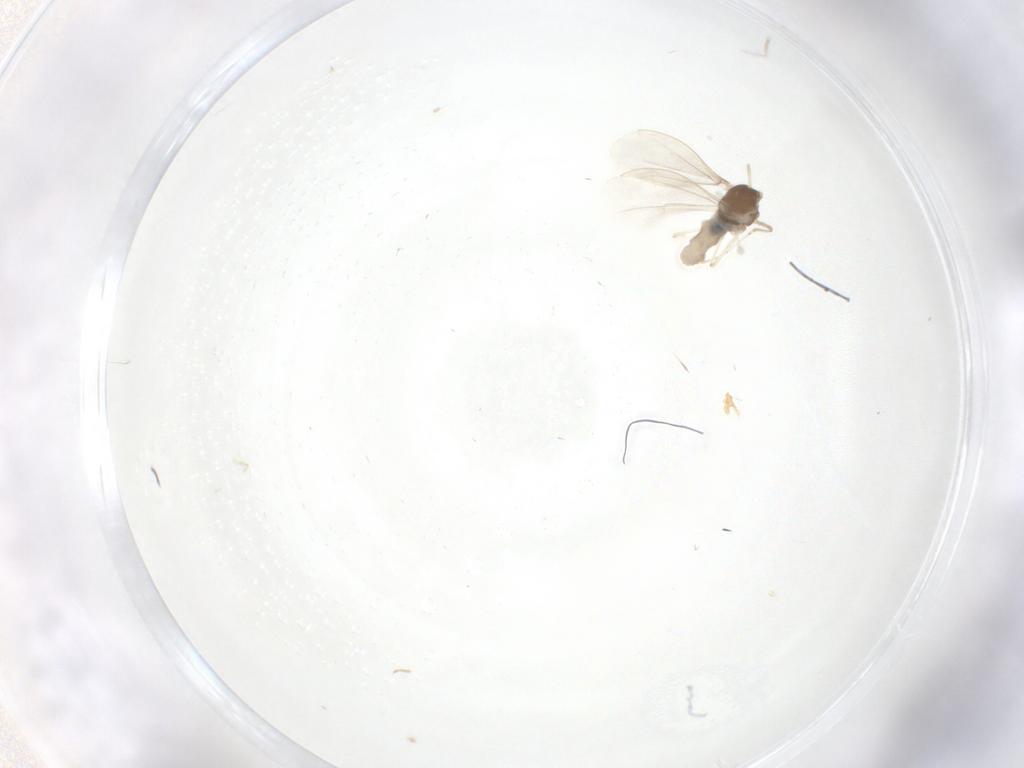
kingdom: Animalia
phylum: Arthropoda
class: Insecta
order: Diptera
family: Cecidomyiidae
